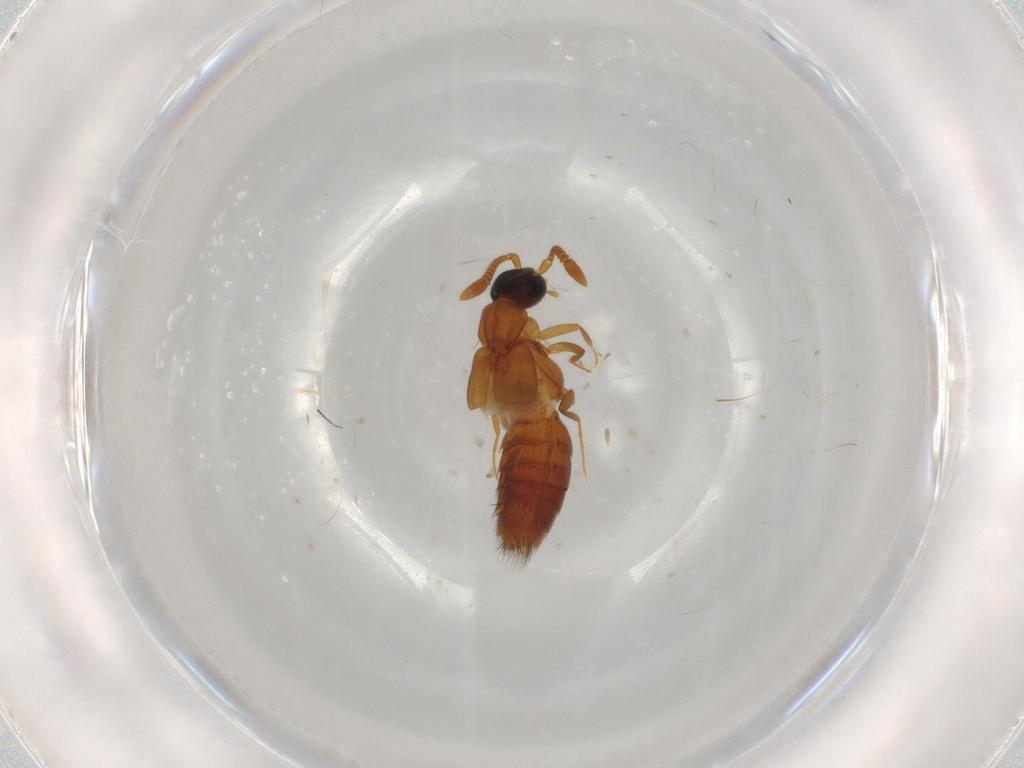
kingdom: Animalia
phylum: Arthropoda
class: Insecta
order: Coleoptera
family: Staphylinidae
